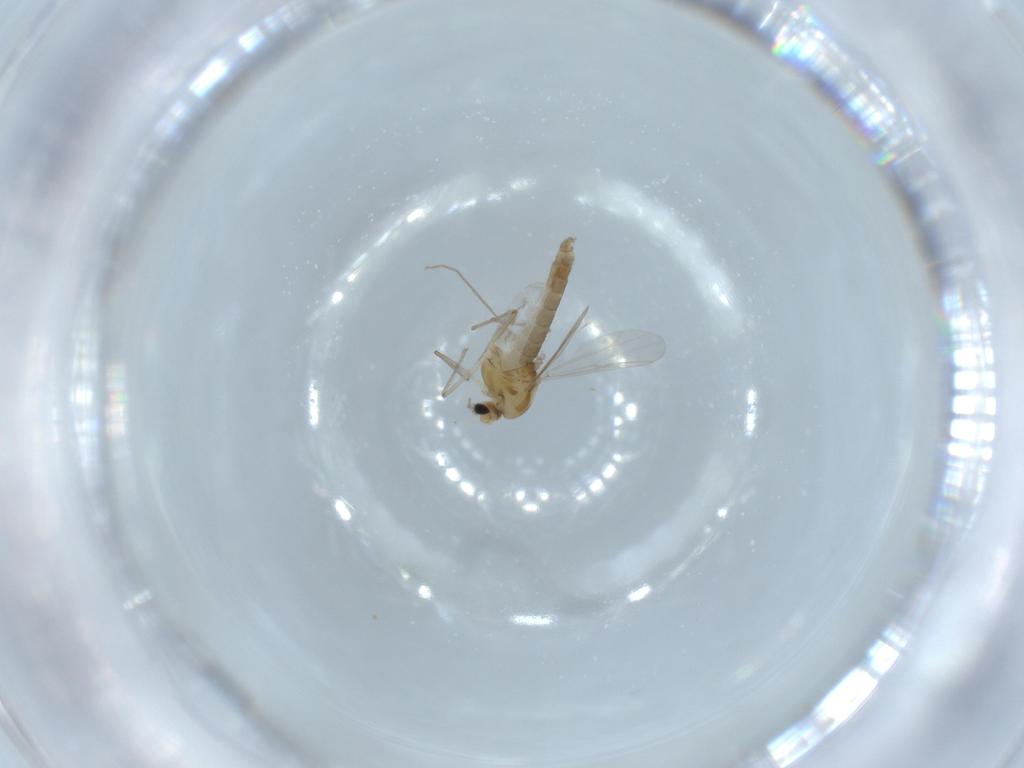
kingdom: Animalia
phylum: Arthropoda
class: Insecta
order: Diptera
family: Chironomidae
